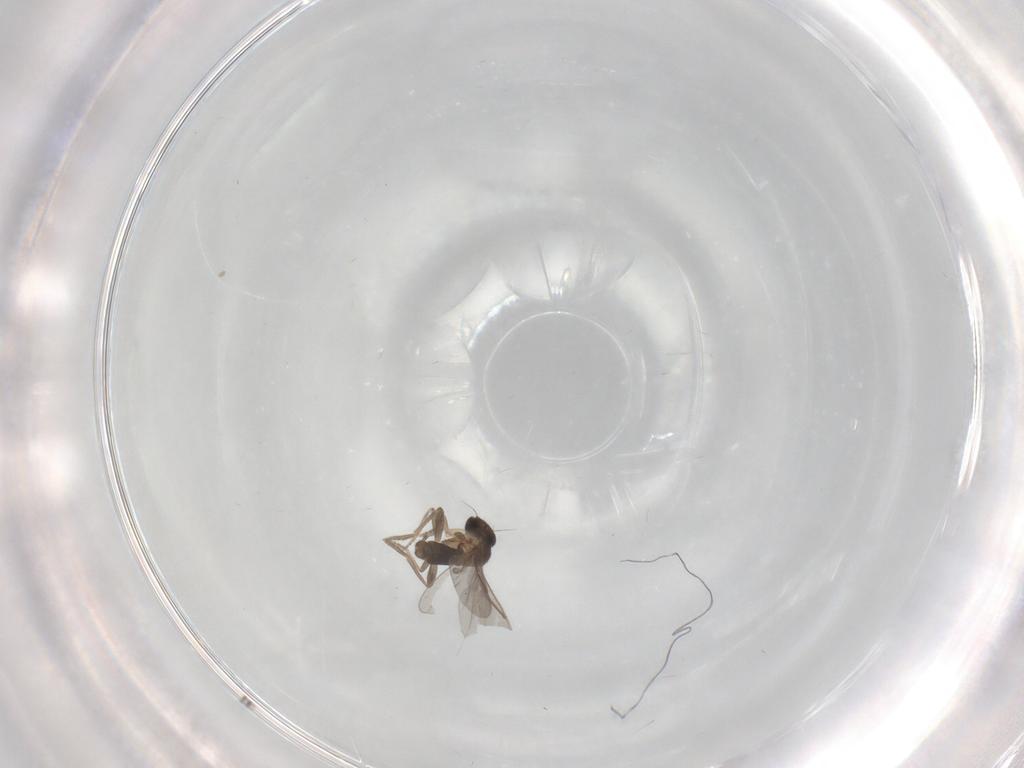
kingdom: Animalia
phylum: Arthropoda
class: Insecta
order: Diptera
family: Cecidomyiidae
